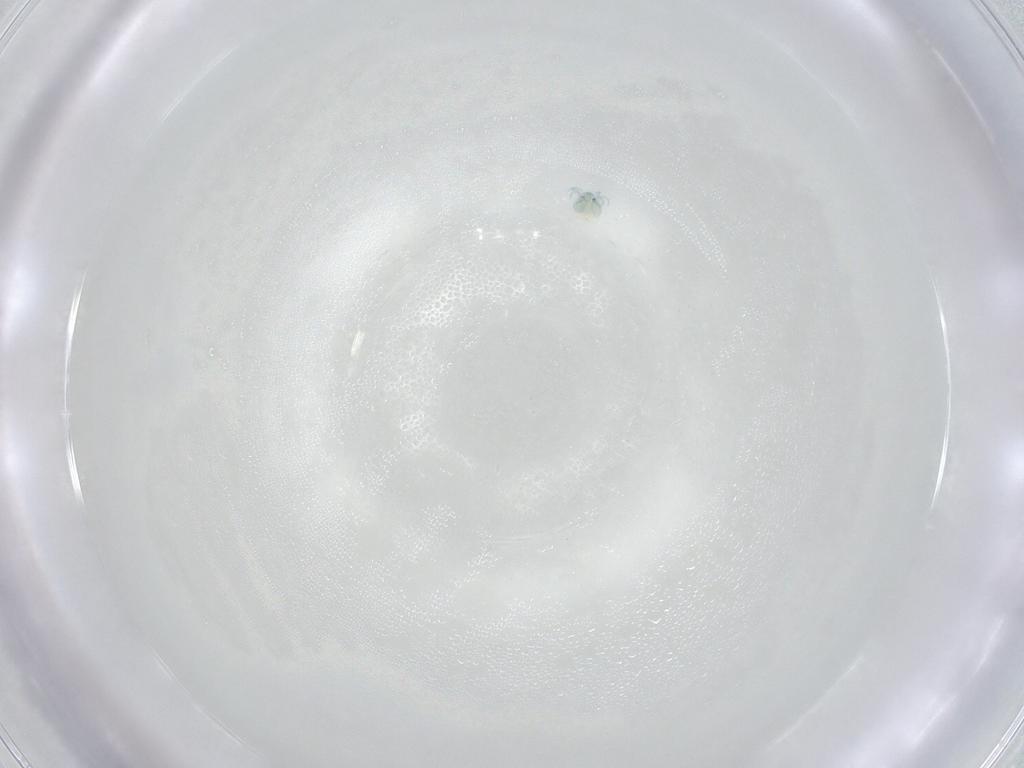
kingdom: Animalia
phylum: Arthropoda
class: Arachnida
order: Trombidiformes
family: Arrenuridae
